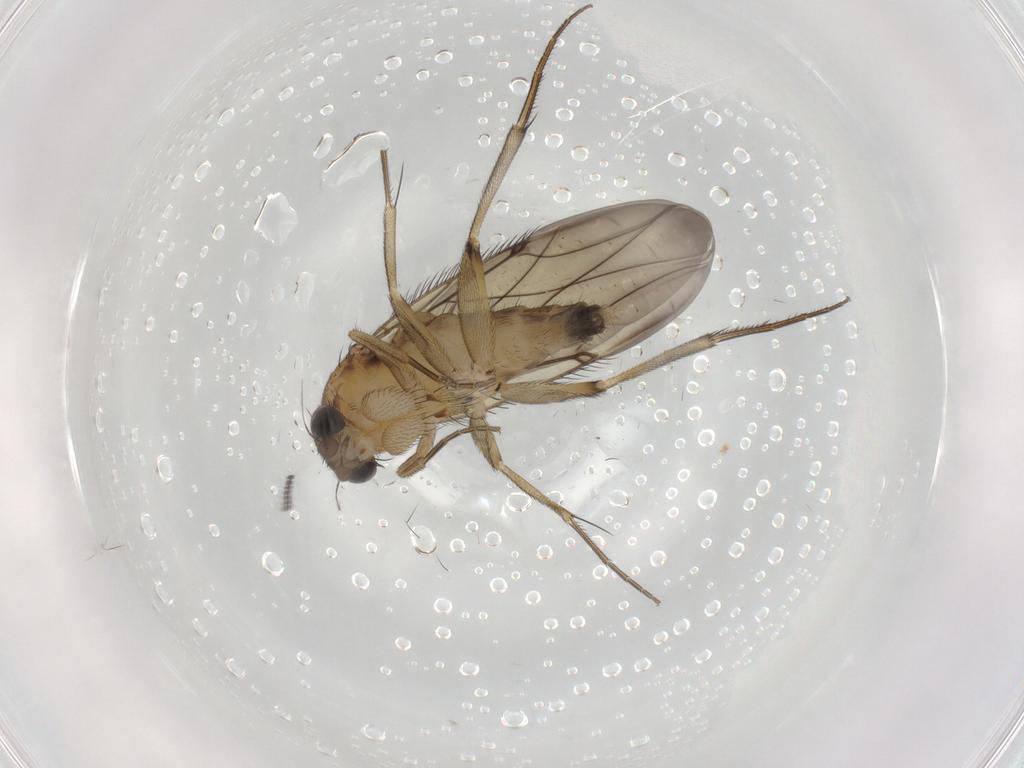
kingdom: Animalia
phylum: Arthropoda
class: Insecta
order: Diptera
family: Phoridae
